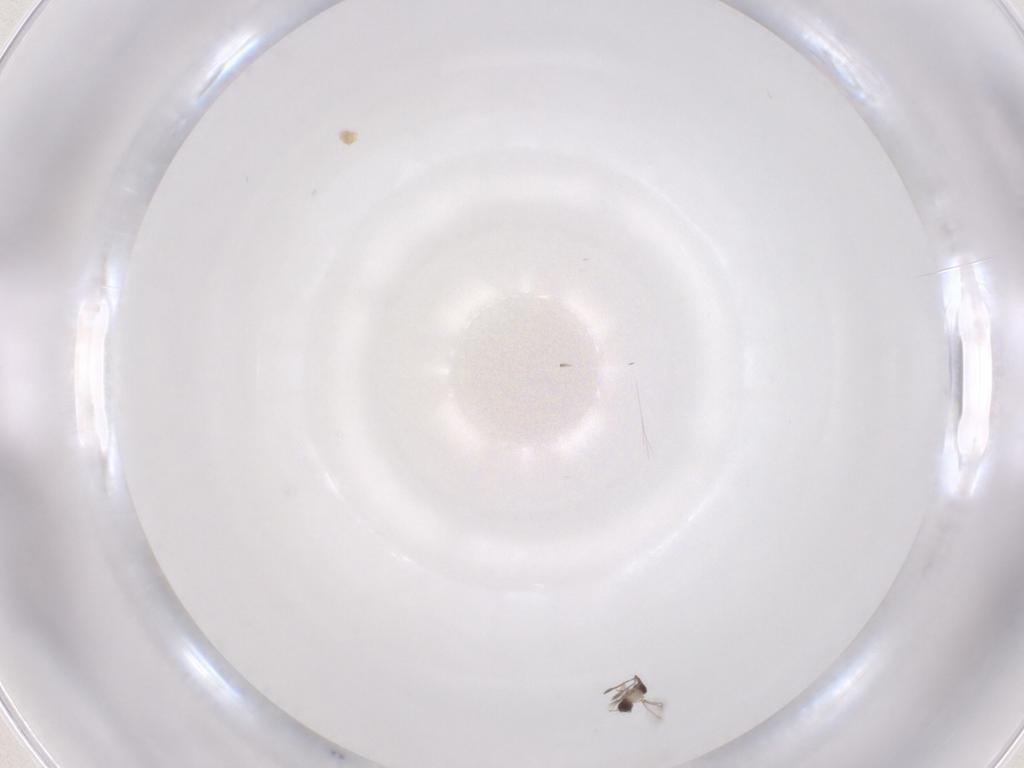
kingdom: Animalia
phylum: Arthropoda
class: Insecta
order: Coleoptera
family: Chrysomelidae
